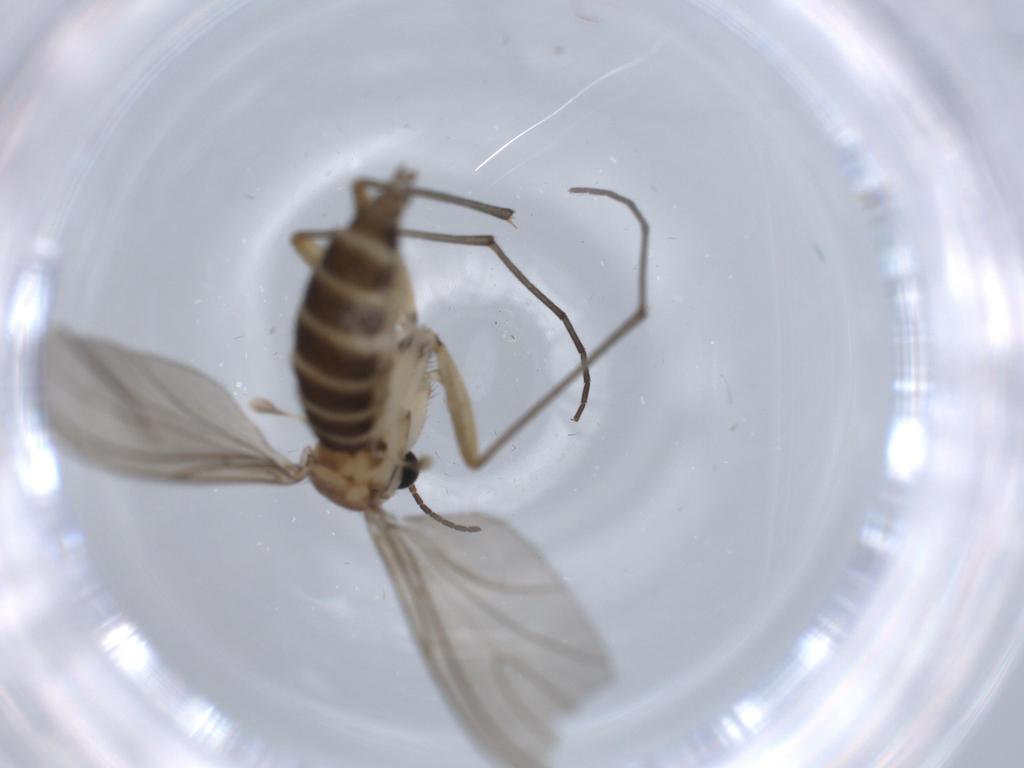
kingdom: Animalia
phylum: Arthropoda
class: Insecta
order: Diptera
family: Sciaridae
